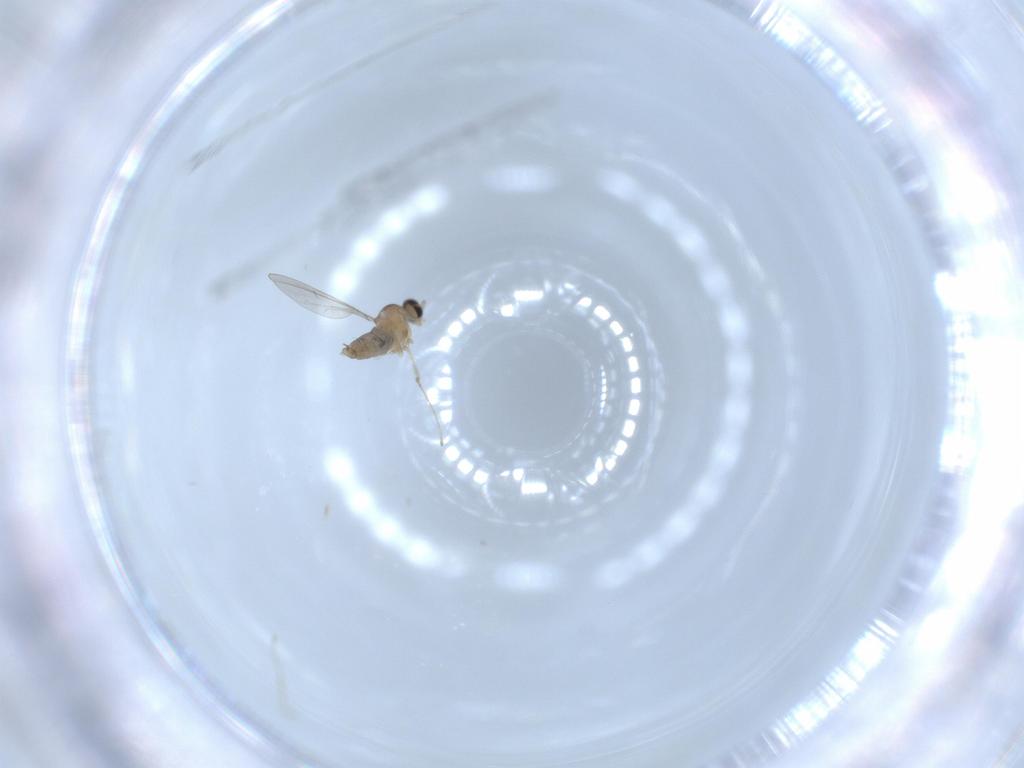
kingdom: Animalia
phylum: Arthropoda
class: Insecta
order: Diptera
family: Cecidomyiidae
